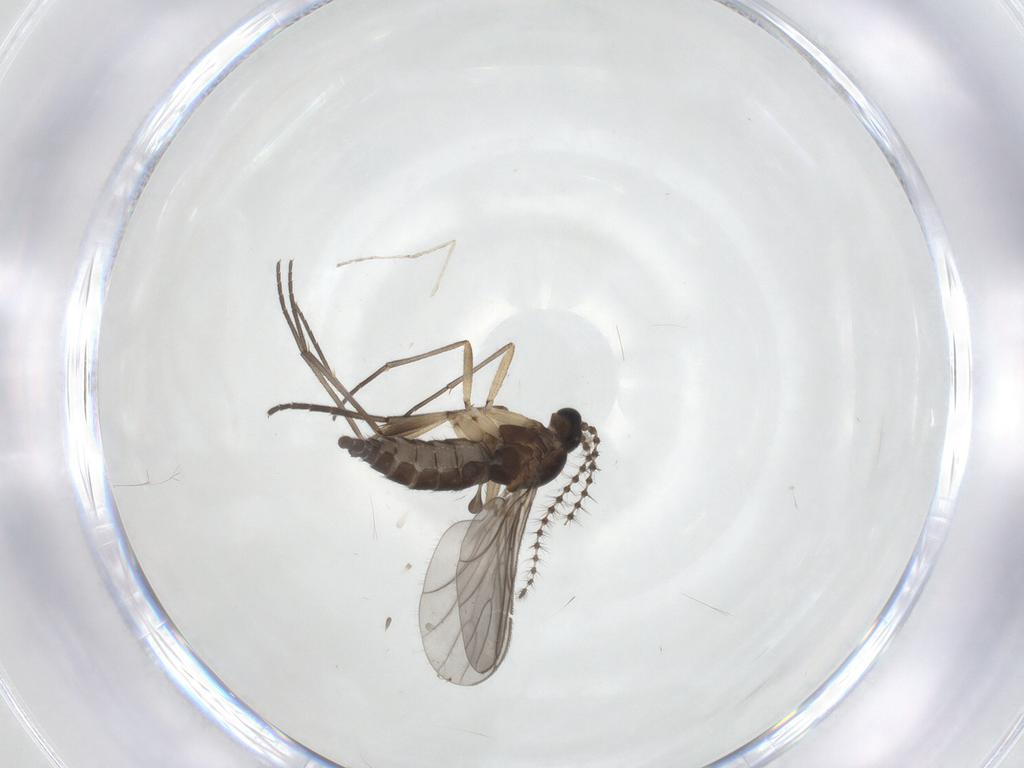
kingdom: Animalia
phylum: Arthropoda
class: Insecta
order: Diptera
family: Sciaridae
